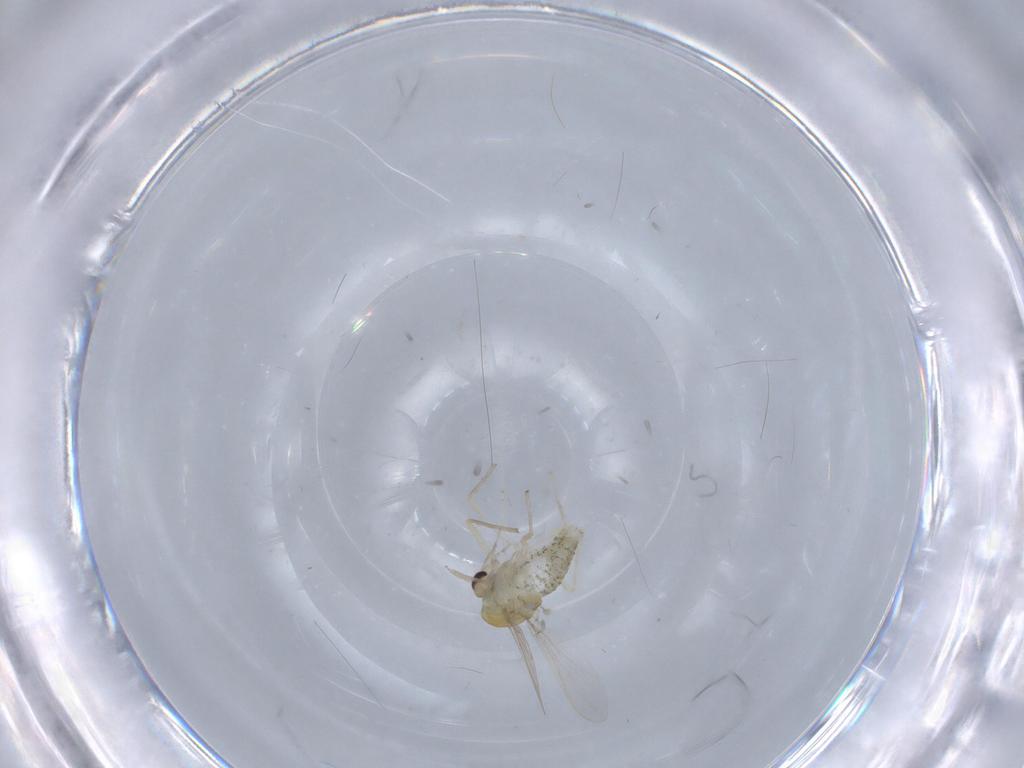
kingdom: Animalia
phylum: Arthropoda
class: Insecta
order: Diptera
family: Chironomidae
